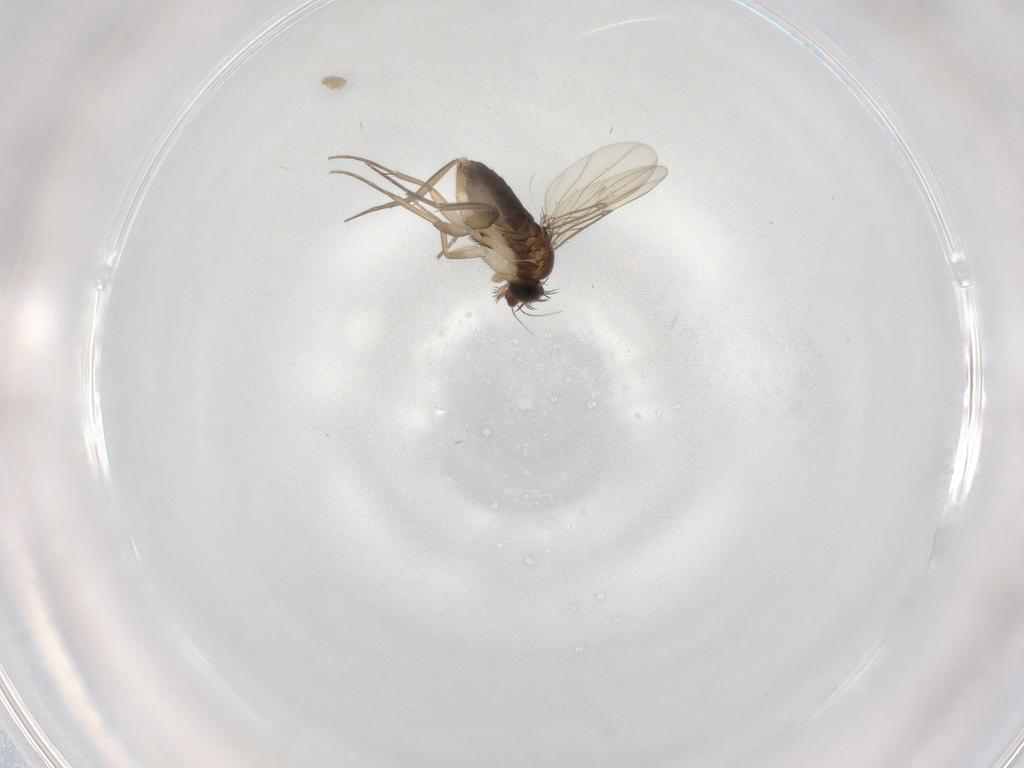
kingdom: Animalia
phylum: Arthropoda
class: Insecta
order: Diptera
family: Phoridae
